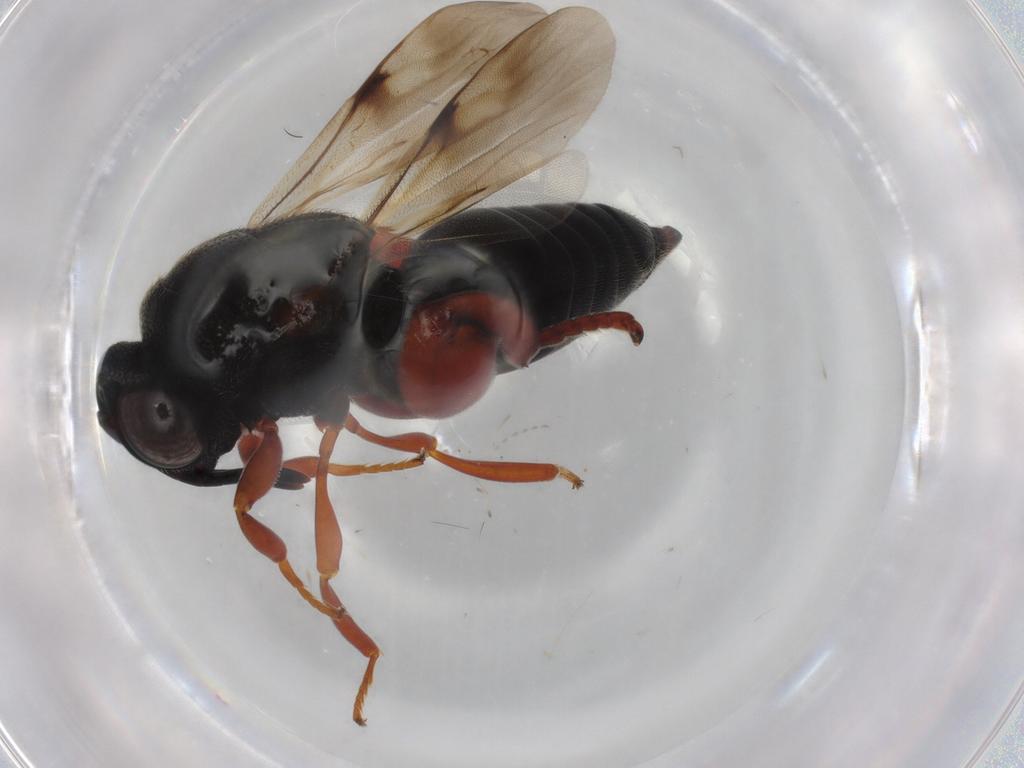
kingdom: Animalia
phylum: Arthropoda
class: Insecta
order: Hymenoptera
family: Chalcididae
